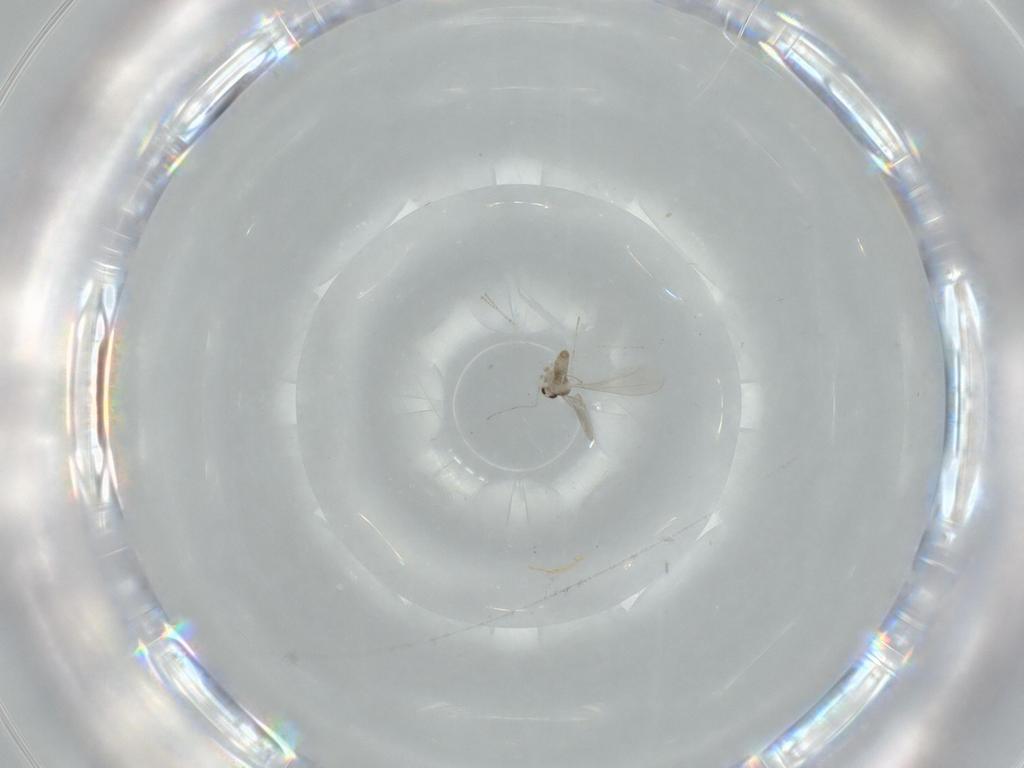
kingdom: Animalia
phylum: Arthropoda
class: Insecta
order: Diptera
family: Cecidomyiidae
